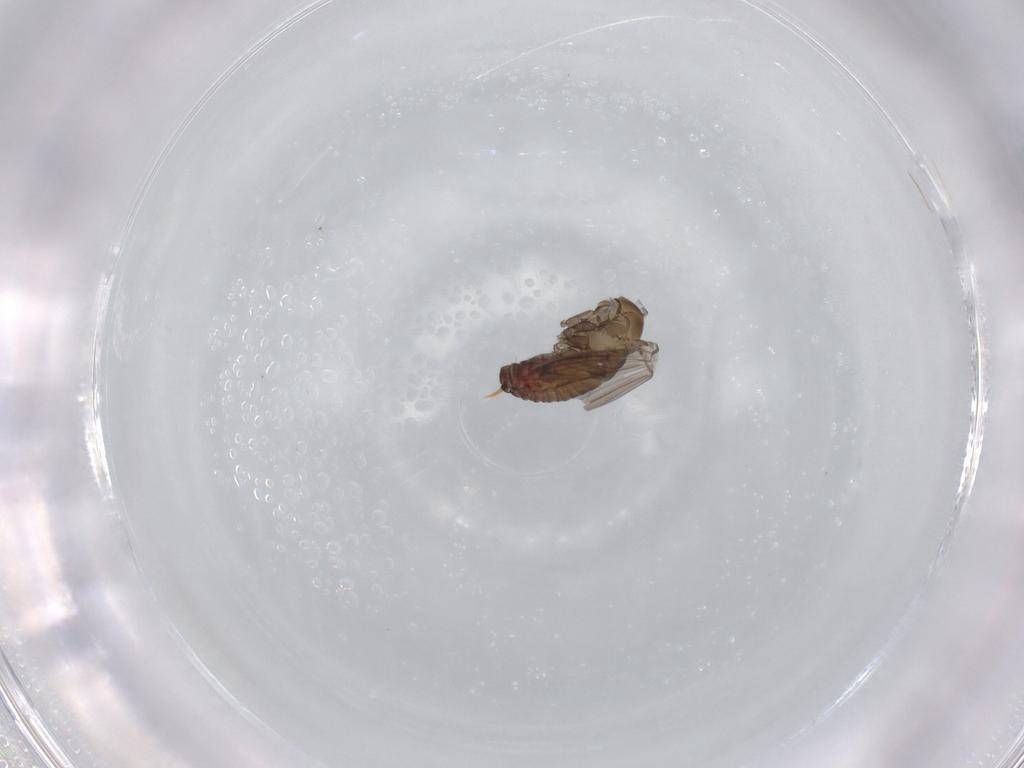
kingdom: Animalia
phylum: Arthropoda
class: Insecta
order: Diptera
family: Psychodidae
